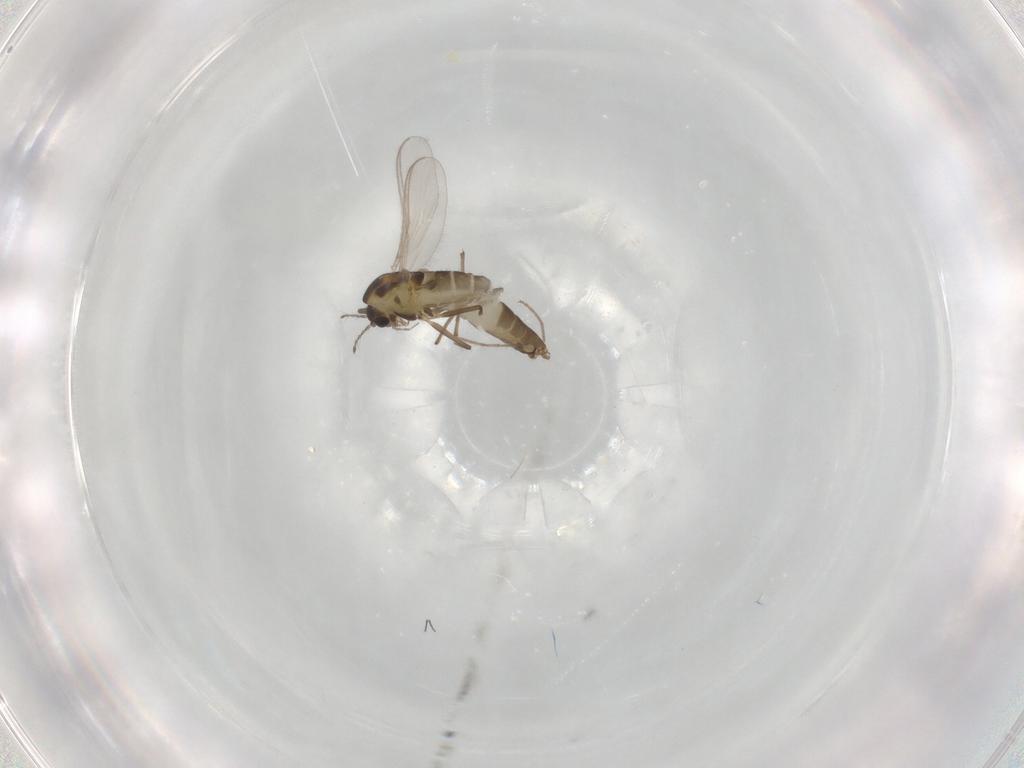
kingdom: Animalia
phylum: Arthropoda
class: Insecta
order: Diptera
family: Chironomidae
